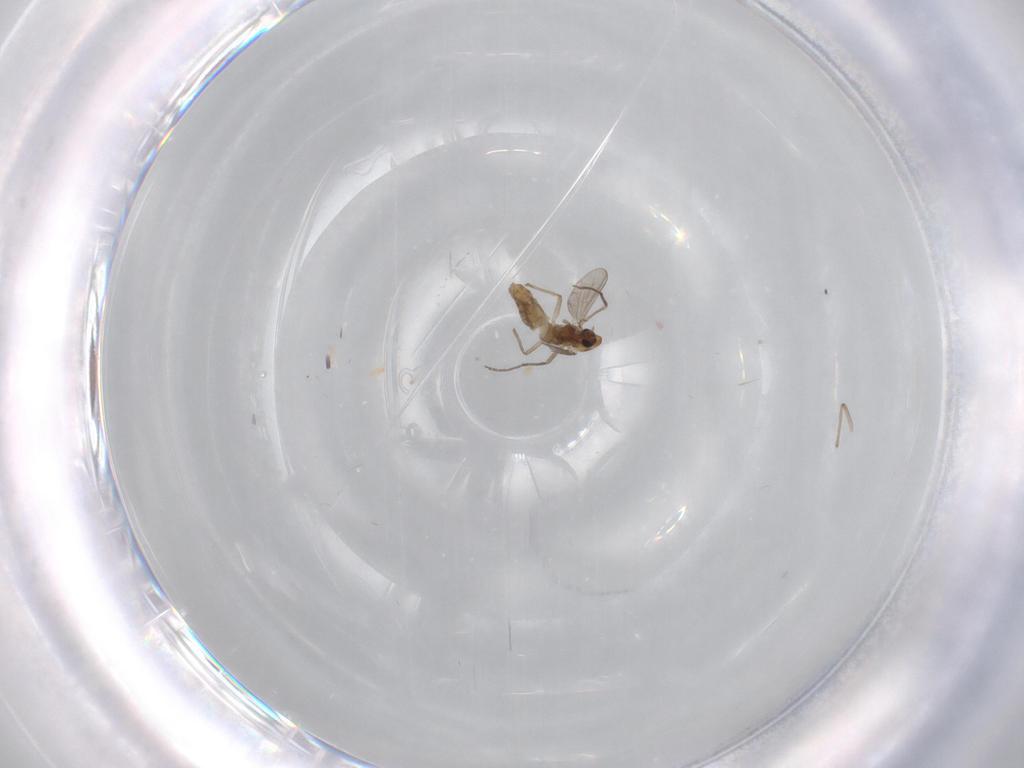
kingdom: Animalia
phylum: Arthropoda
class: Insecta
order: Diptera
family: Chironomidae
